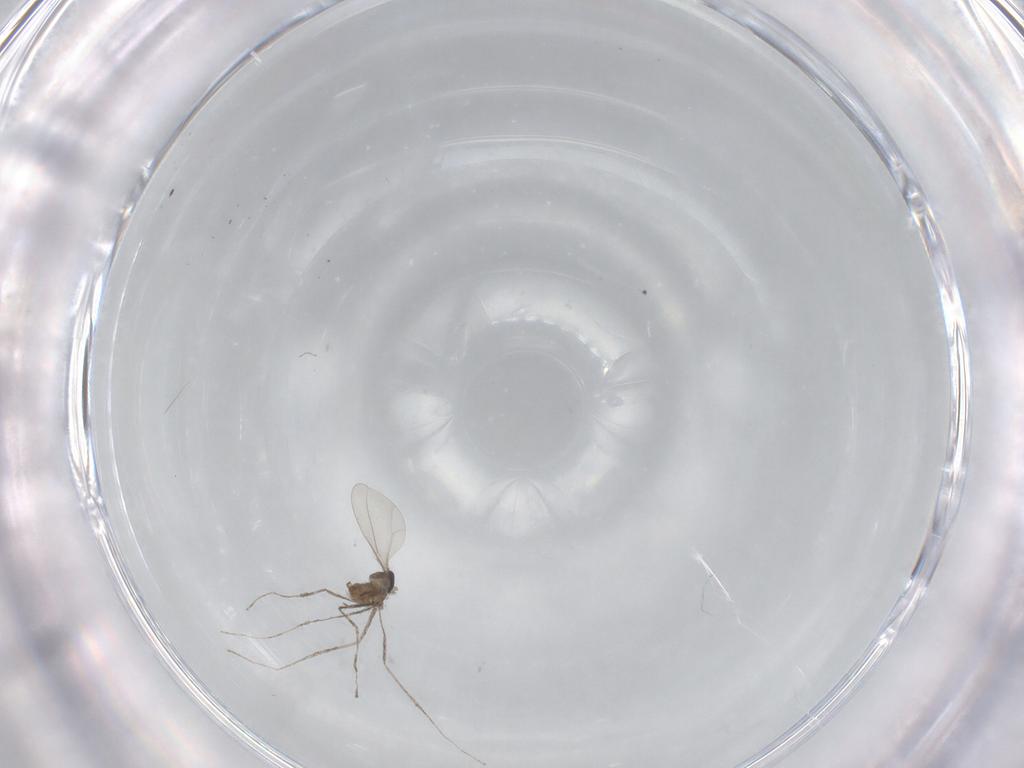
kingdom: Animalia
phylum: Arthropoda
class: Insecta
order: Diptera
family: Cecidomyiidae
